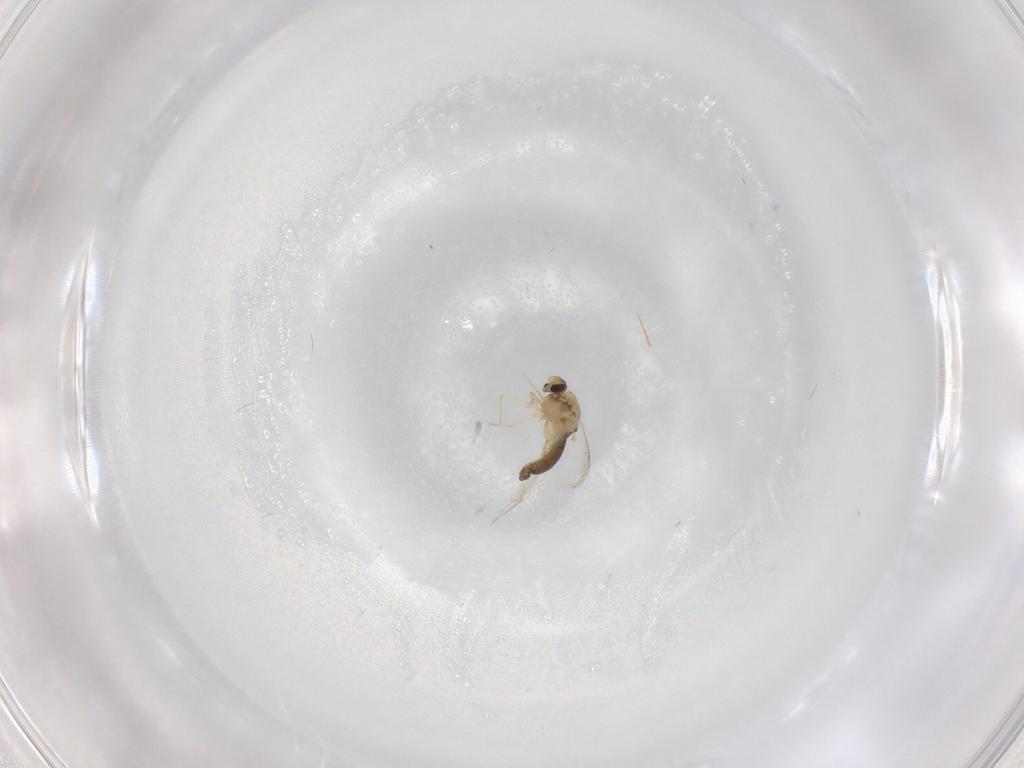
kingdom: Animalia
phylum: Arthropoda
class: Insecta
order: Diptera
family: Chironomidae
